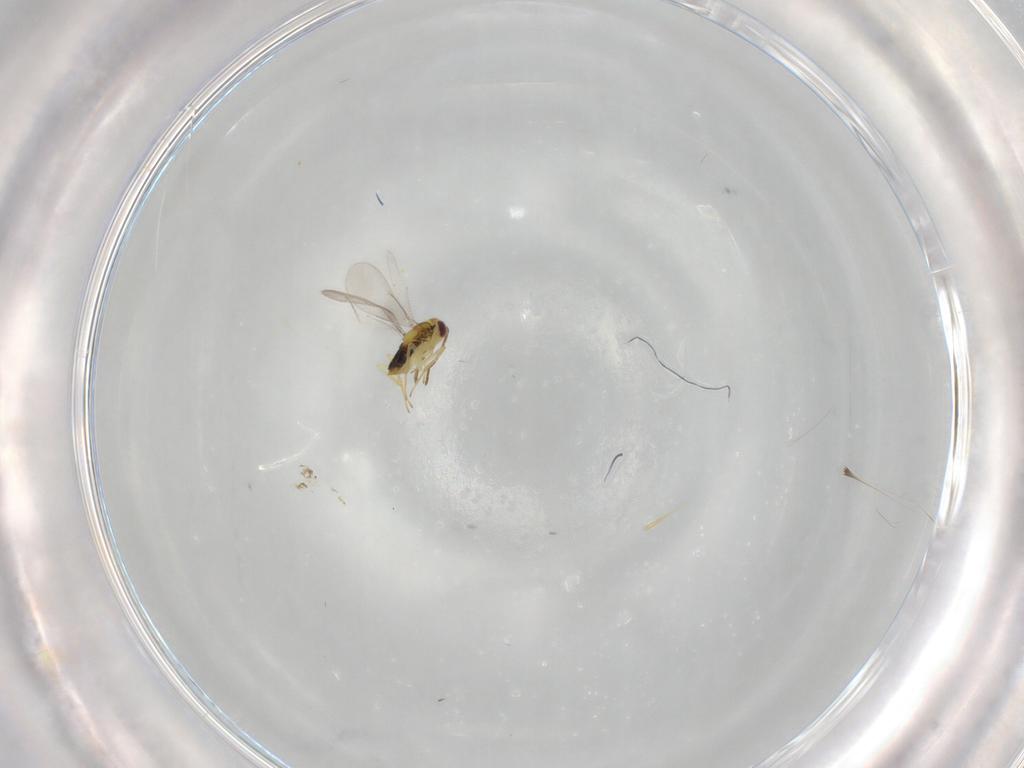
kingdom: Animalia
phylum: Arthropoda
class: Insecta
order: Hymenoptera
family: Aphelinidae
